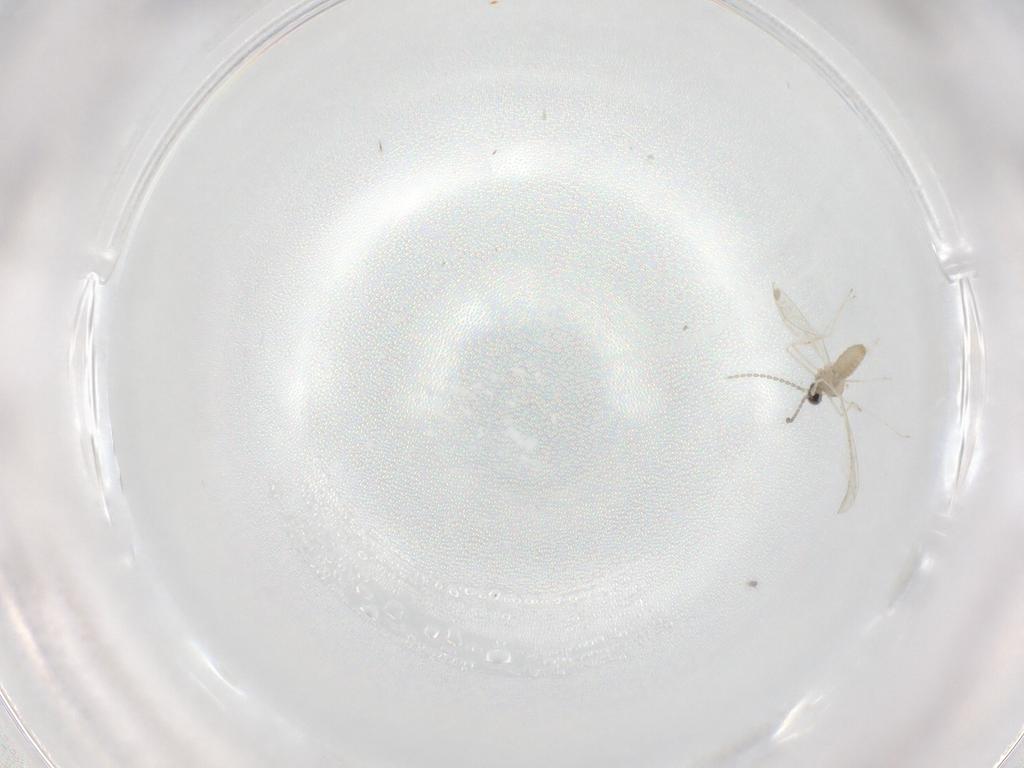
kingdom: Animalia
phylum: Arthropoda
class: Insecta
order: Diptera
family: Cecidomyiidae
